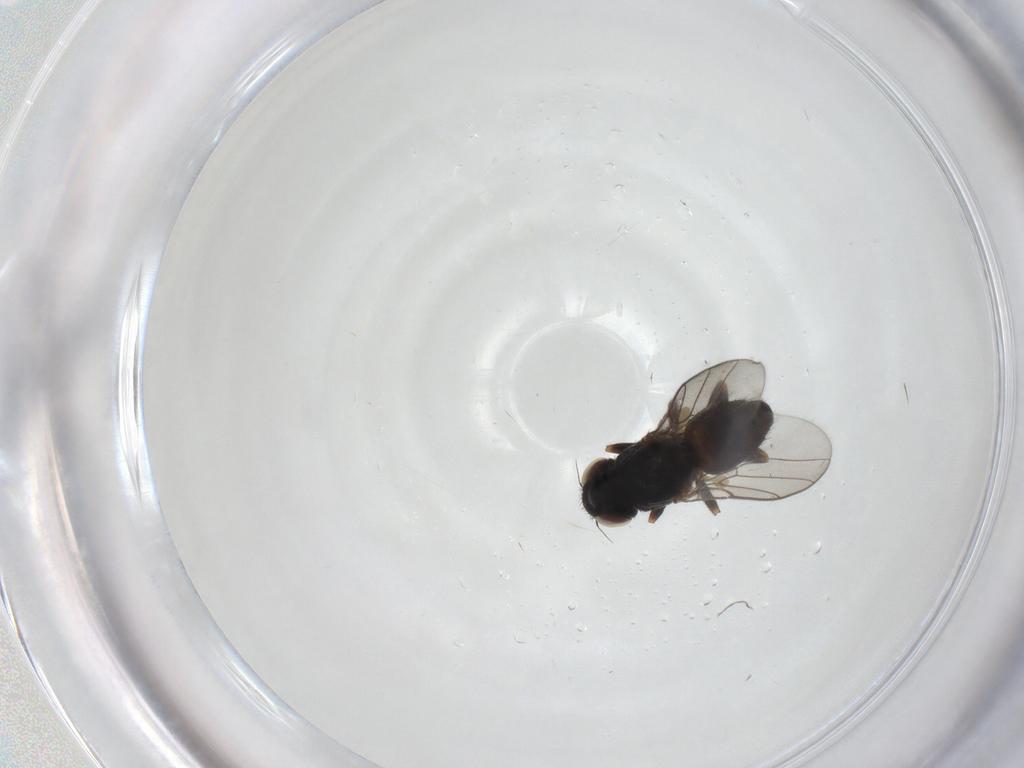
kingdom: Animalia
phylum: Arthropoda
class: Insecta
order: Diptera
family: Chloropidae
